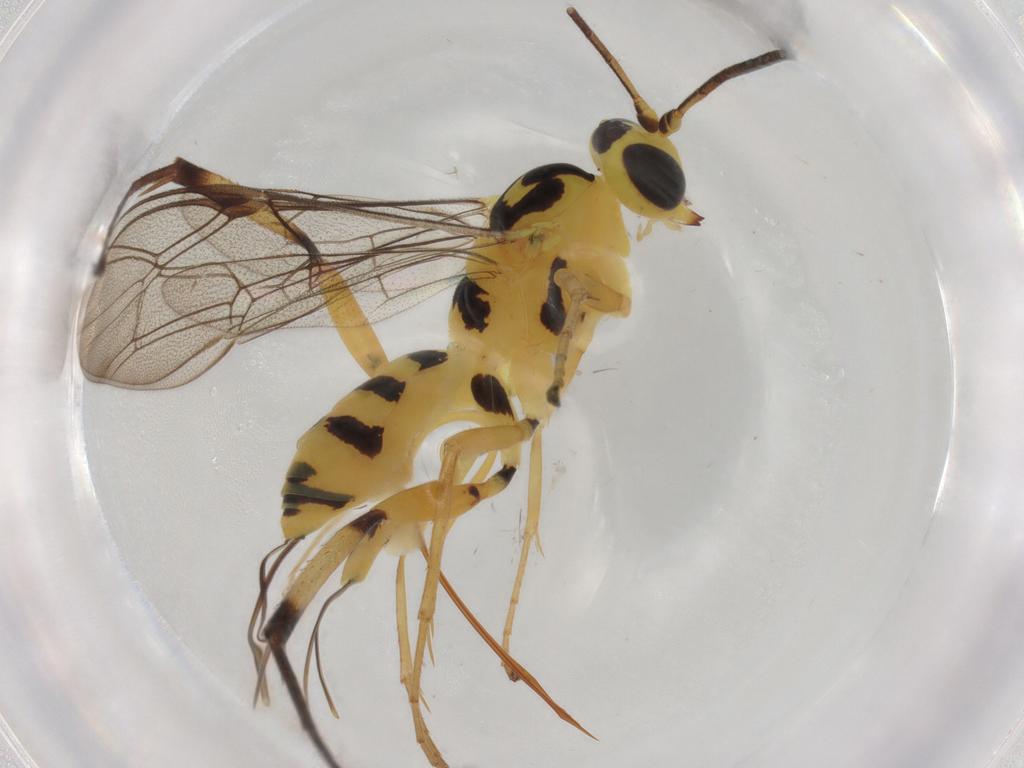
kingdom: Animalia
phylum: Arthropoda
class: Insecta
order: Hymenoptera
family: Ichneumonidae
